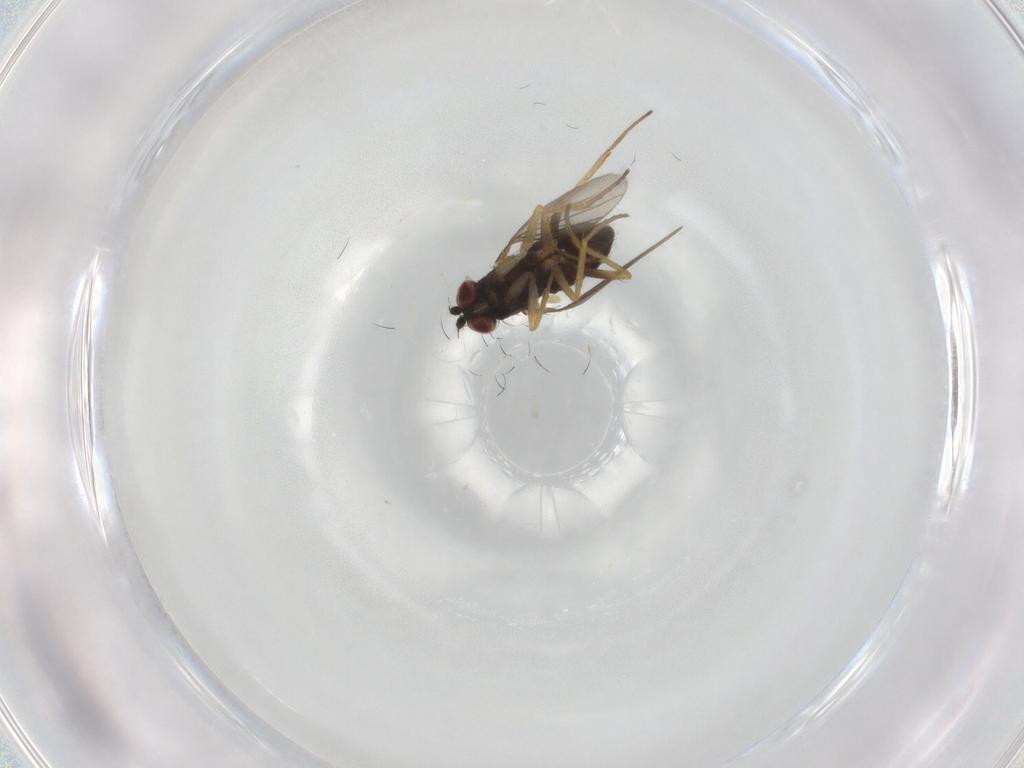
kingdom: Animalia
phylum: Arthropoda
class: Insecta
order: Diptera
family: Dolichopodidae
